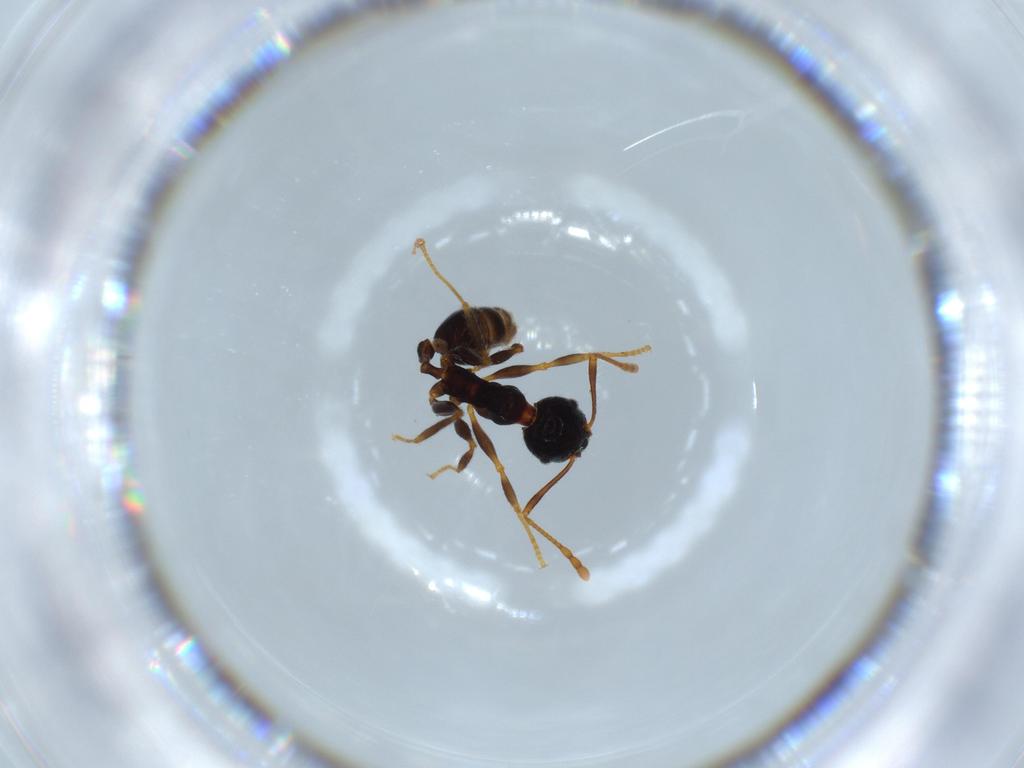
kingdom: Animalia
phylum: Arthropoda
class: Insecta
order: Hymenoptera
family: Formicidae
